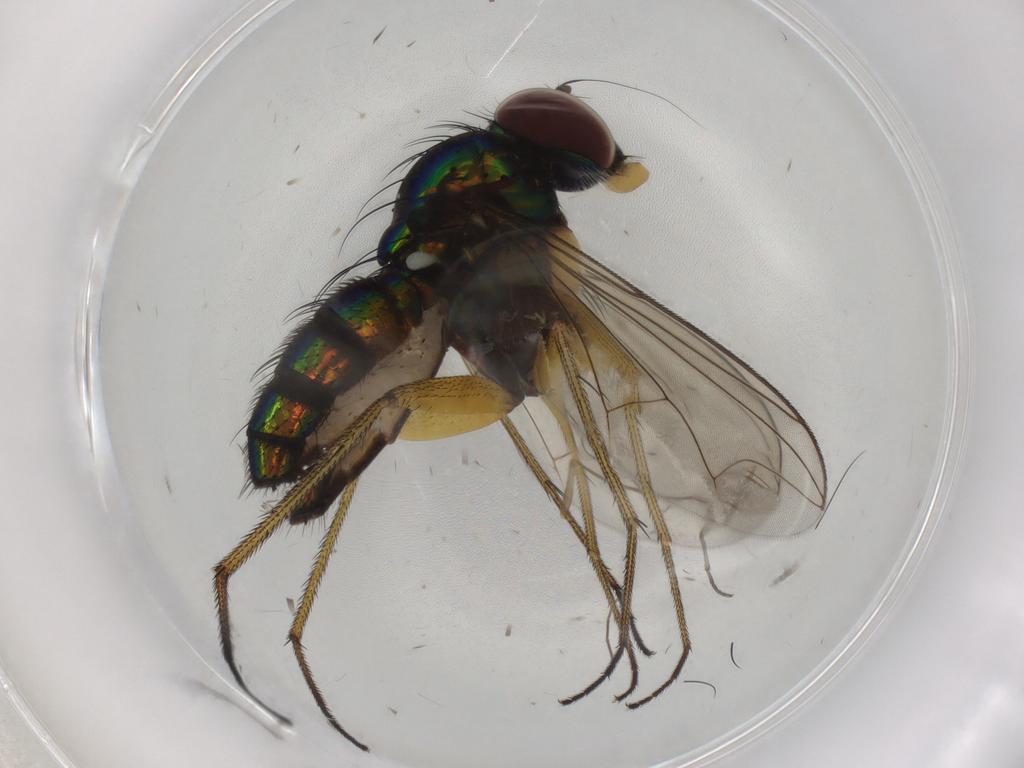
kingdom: Animalia
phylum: Arthropoda
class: Insecta
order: Diptera
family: Dolichopodidae
